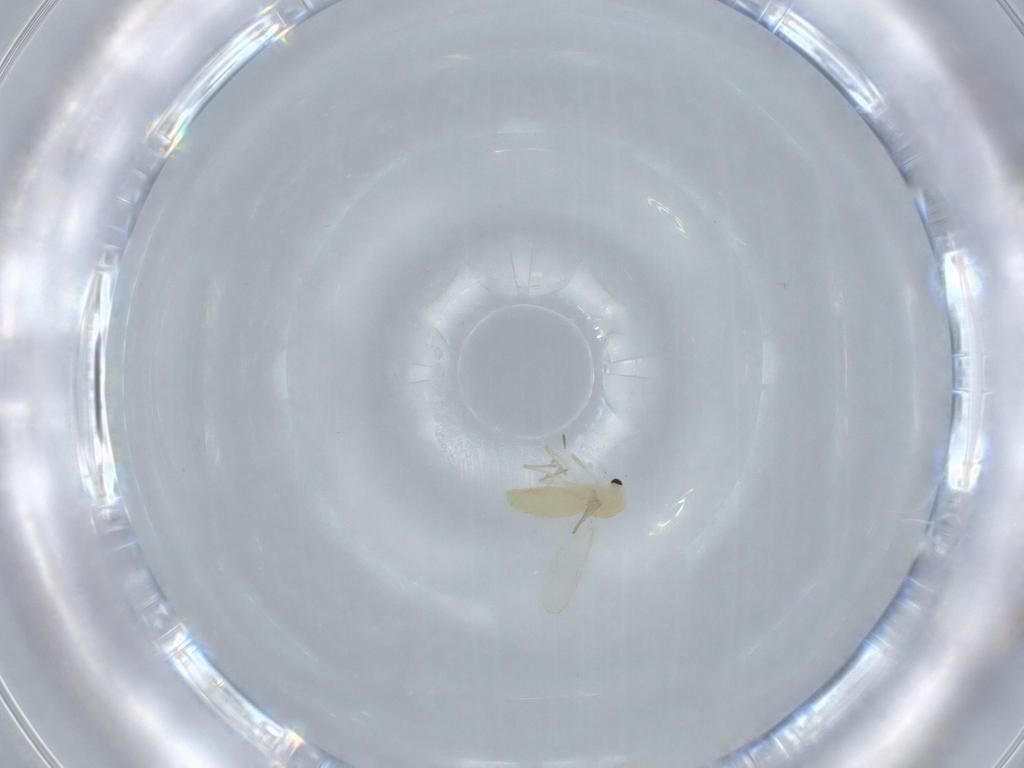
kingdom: Animalia
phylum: Arthropoda
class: Insecta
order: Diptera
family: Chironomidae
